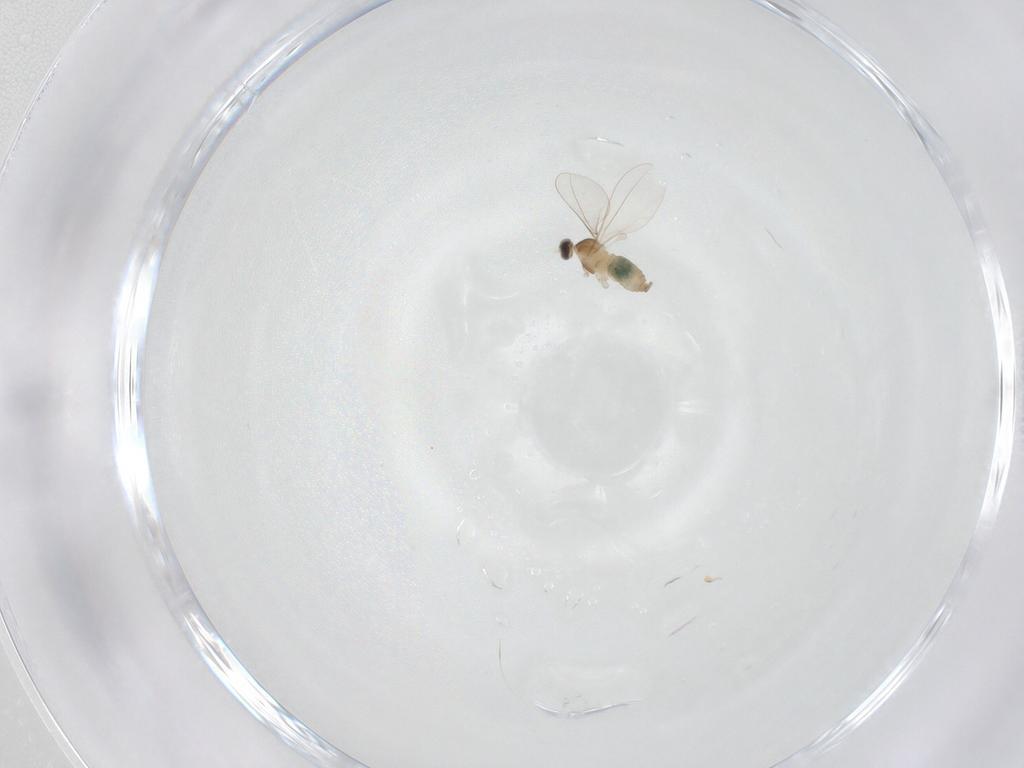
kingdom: Animalia
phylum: Arthropoda
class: Insecta
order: Diptera
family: Cecidomyiidae
